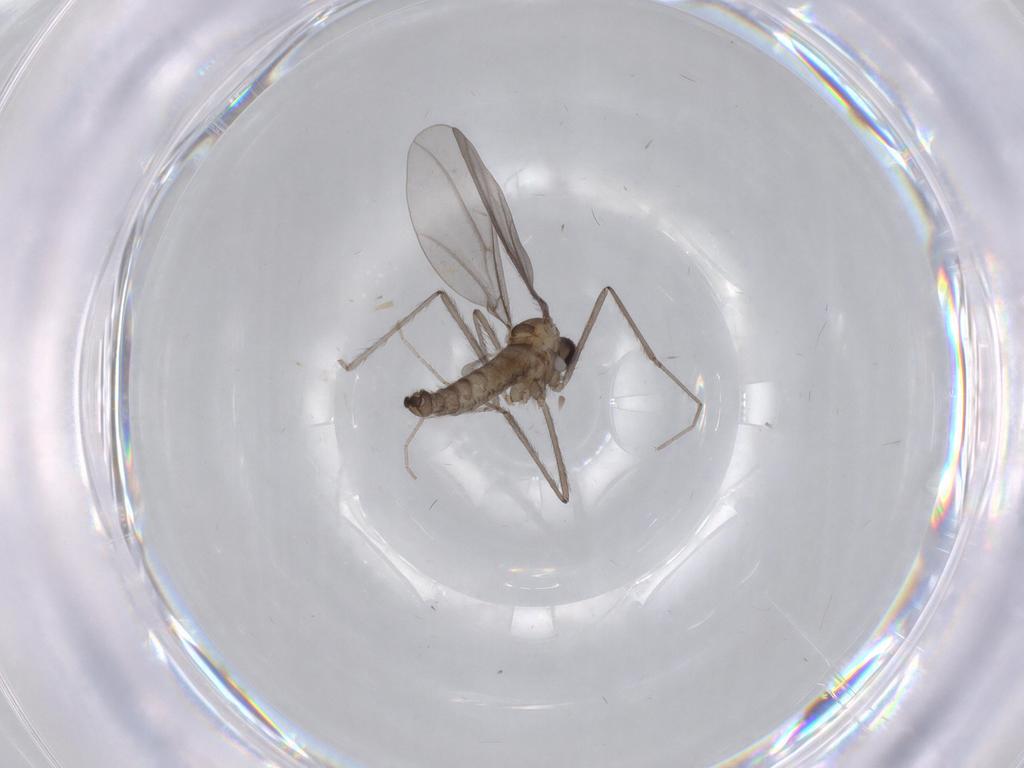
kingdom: Animalia
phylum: Arthropoda
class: Insecta
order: Diptera
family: Cecidomyiidae
